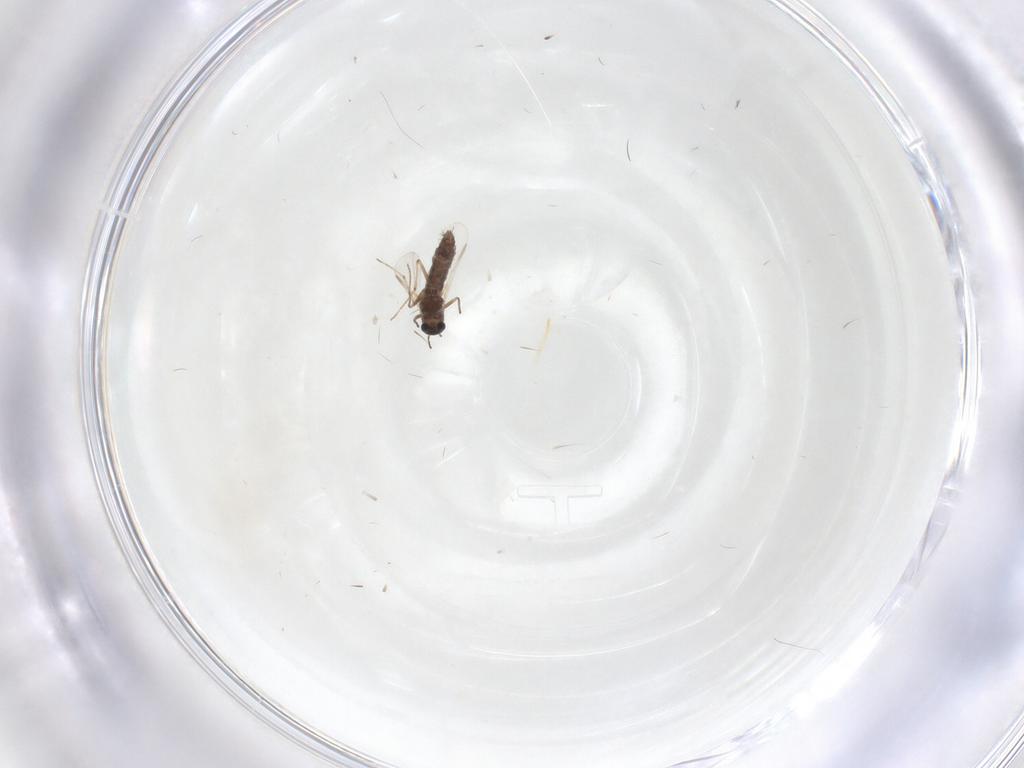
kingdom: Animalia
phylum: Arthropoda
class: Insecta
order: Diptera
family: Chironomidae
